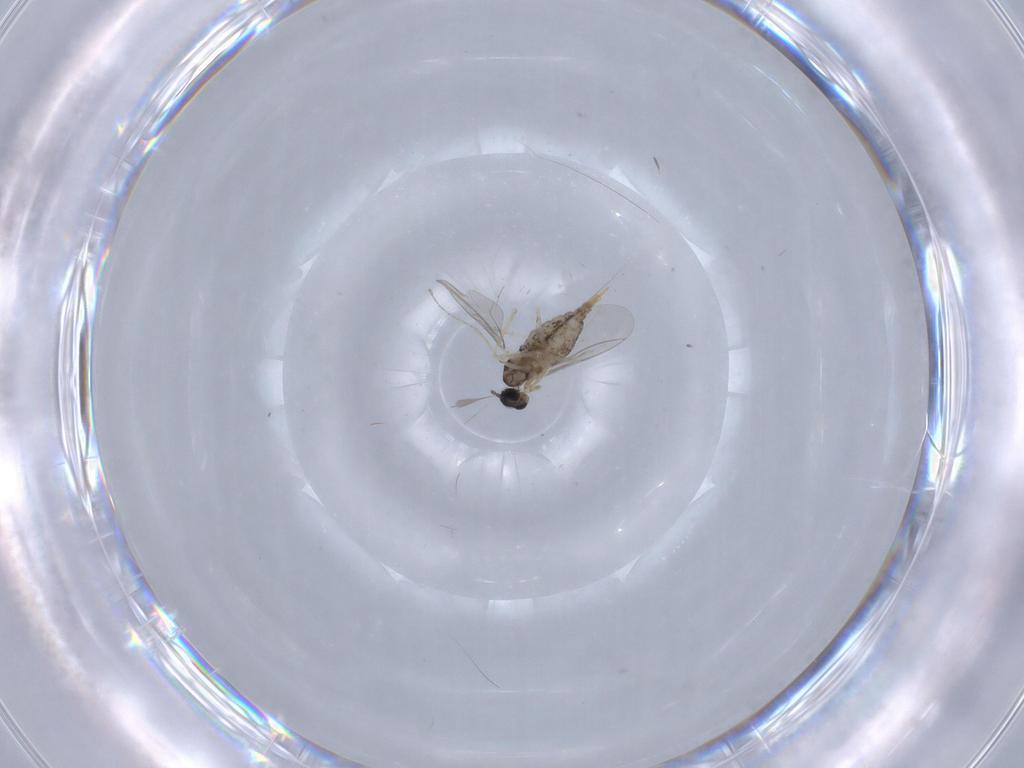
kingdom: Animalia
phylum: Arthropoda
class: Insecta
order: Diptera
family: Cecidomyiidae
